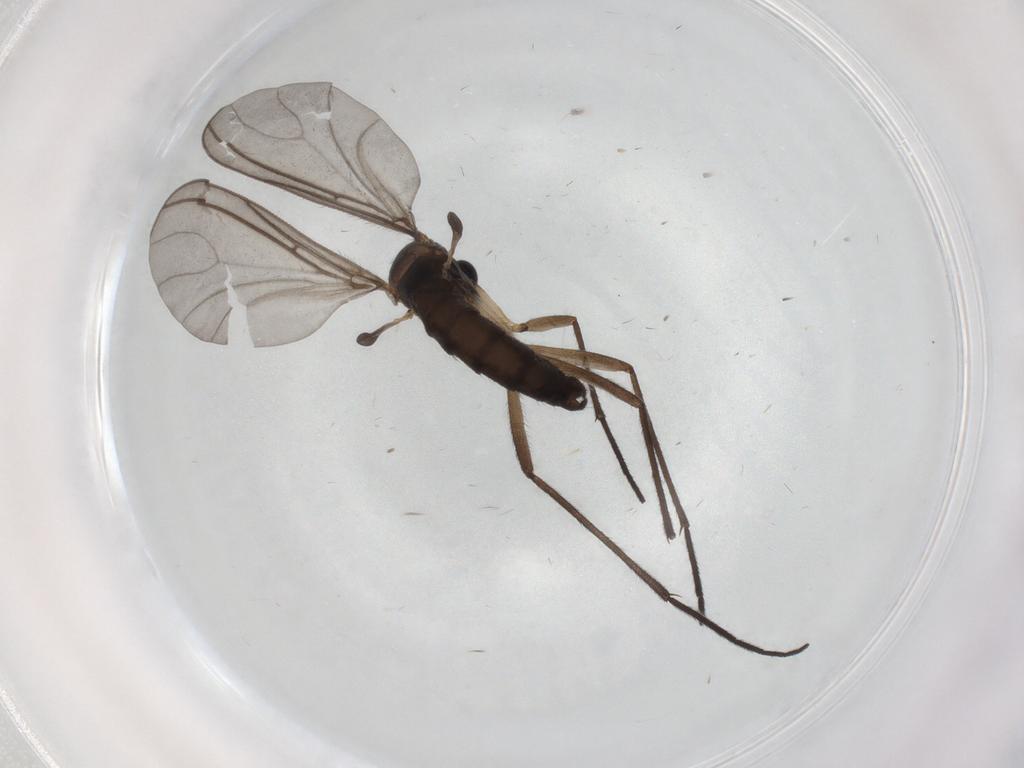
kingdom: Animalia
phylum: Arthropoda
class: Insecta
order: Diptera
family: Sciaridae
